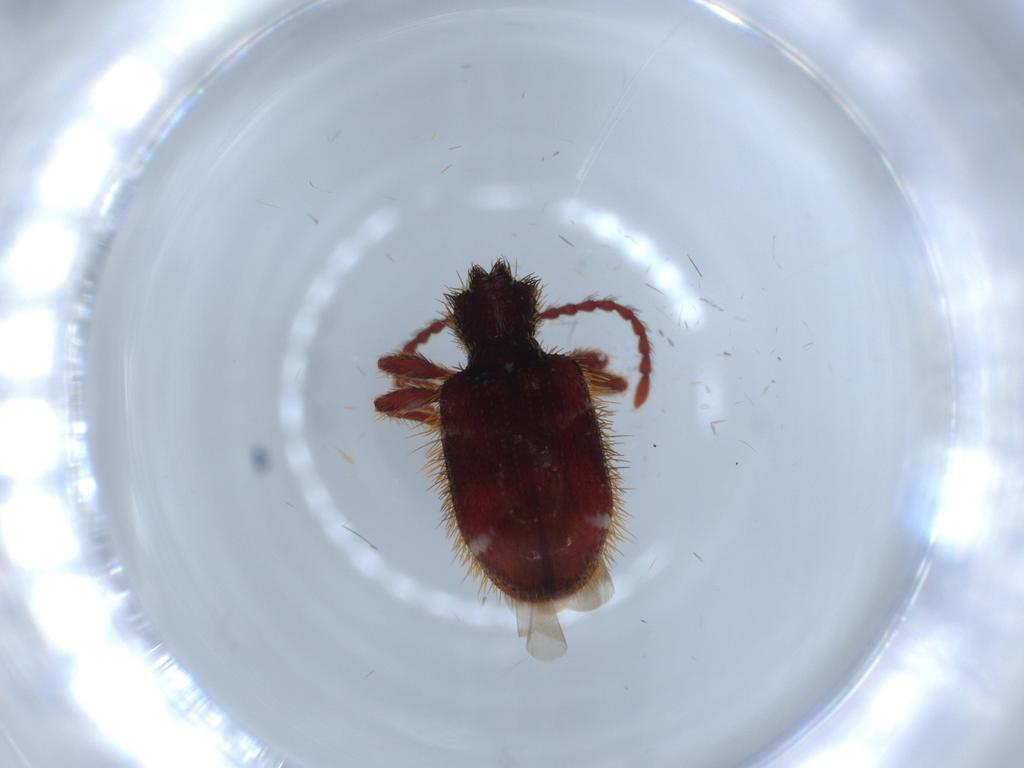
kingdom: Animalia
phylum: Arthropoda
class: Insecta
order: Coleoptera
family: Chrysomelidae
